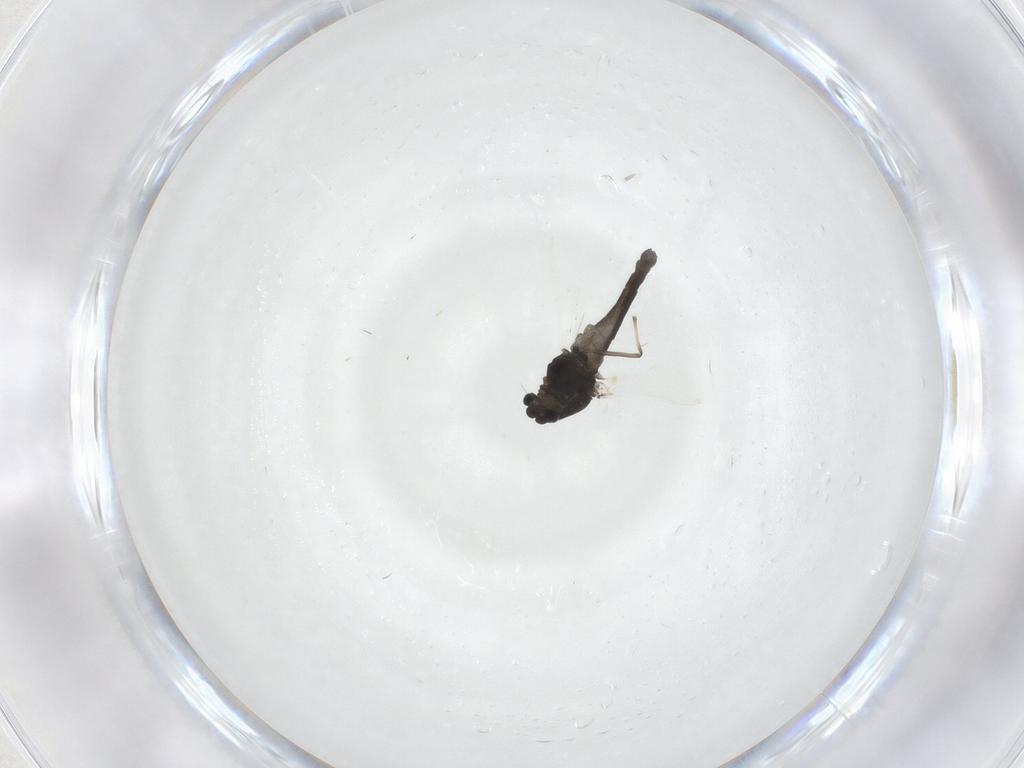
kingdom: Animalia
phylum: Arthropoda
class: Insecta
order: Diptera
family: Chironomidae
